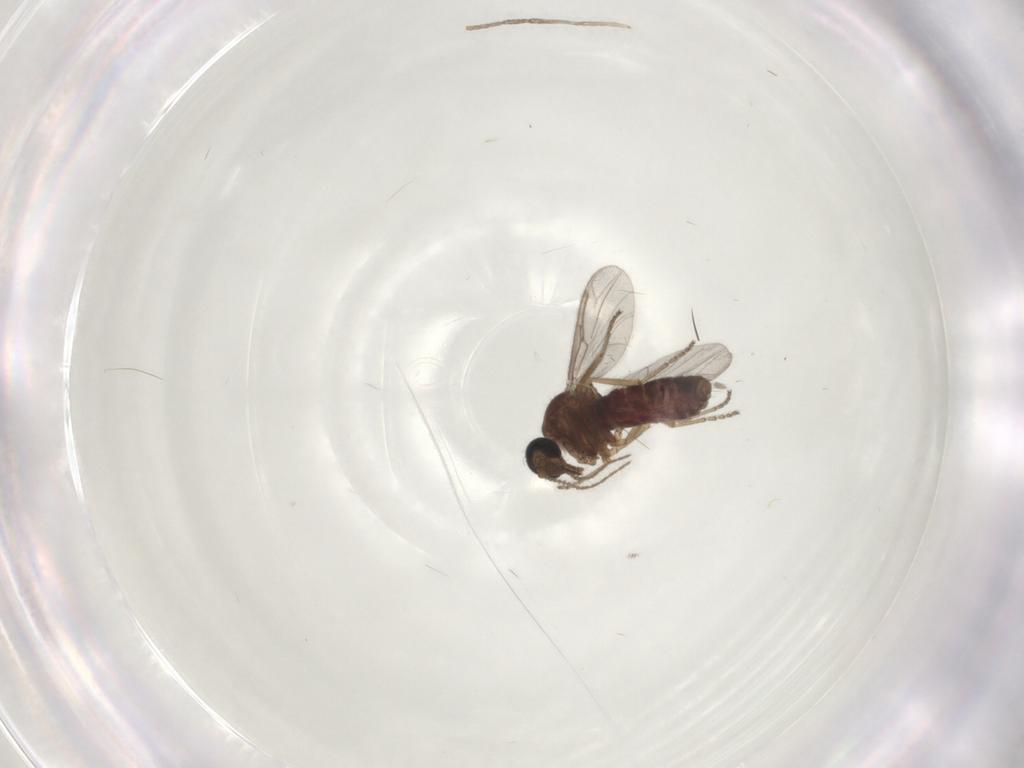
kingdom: Animalia
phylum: Arthropoda
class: Insecta
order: Diptera
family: Ceratopogonidae
